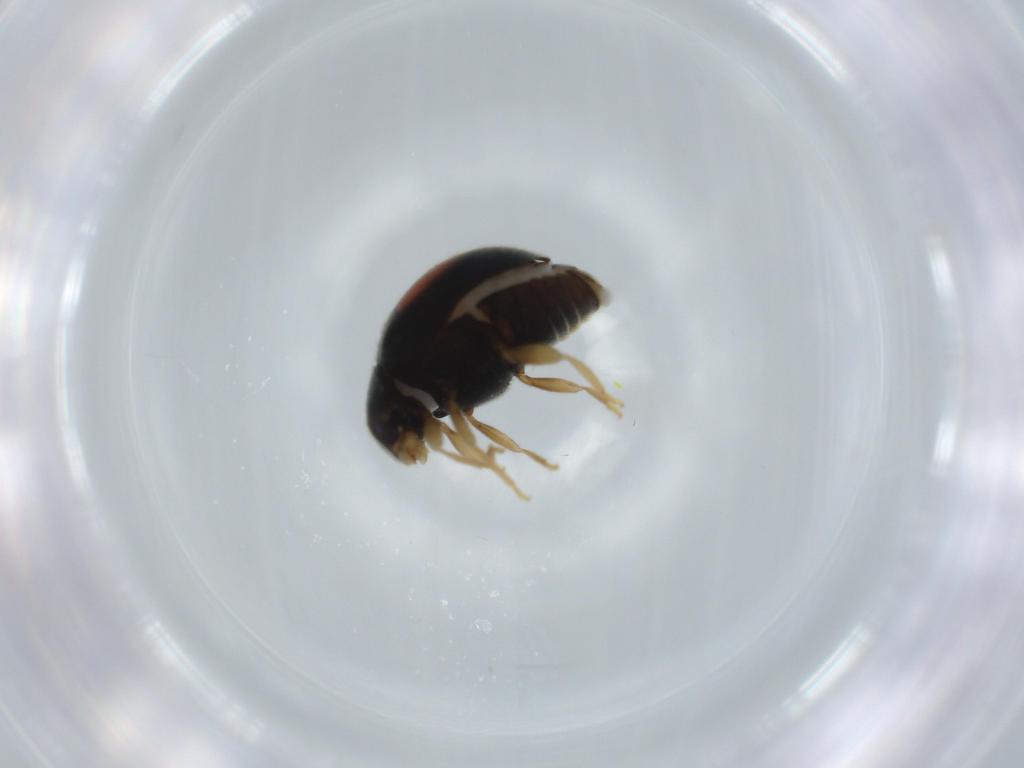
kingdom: Animalia
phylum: Arthropoda
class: Insecta
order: Coleoptera
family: Coccinellidae
